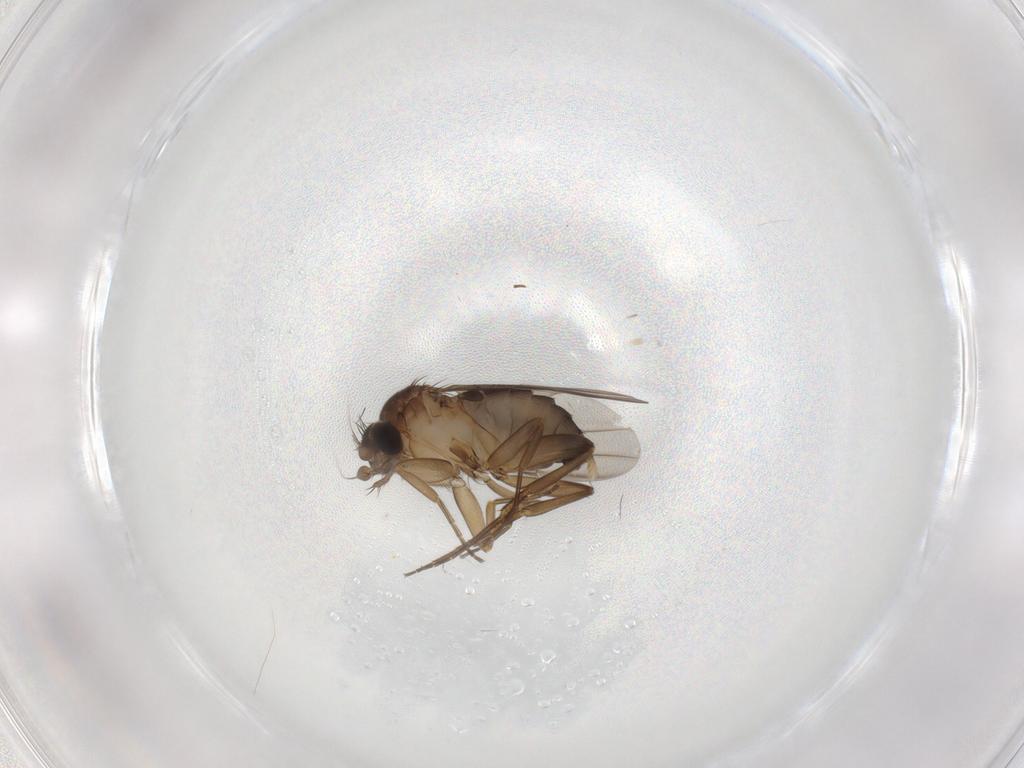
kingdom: Animalia
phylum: Arthropoda
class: Insecta
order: Diptera
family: Phoridae
